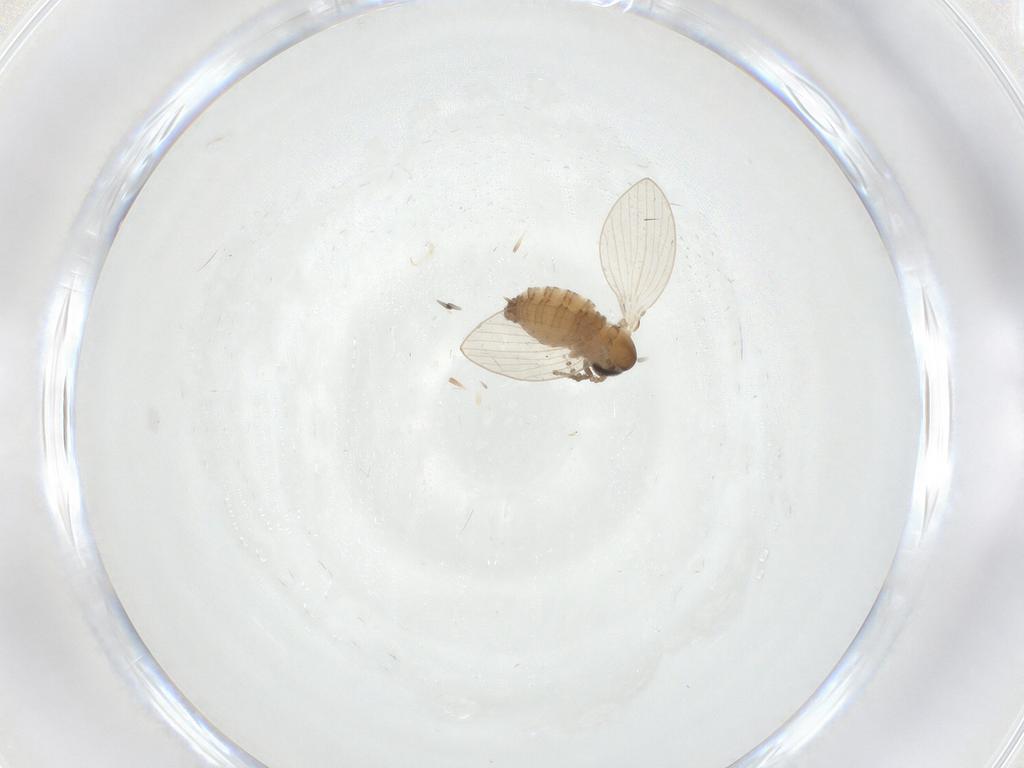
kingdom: Animalia
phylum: Arthropoda
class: Insecta
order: Diptera
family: Psychodidae
